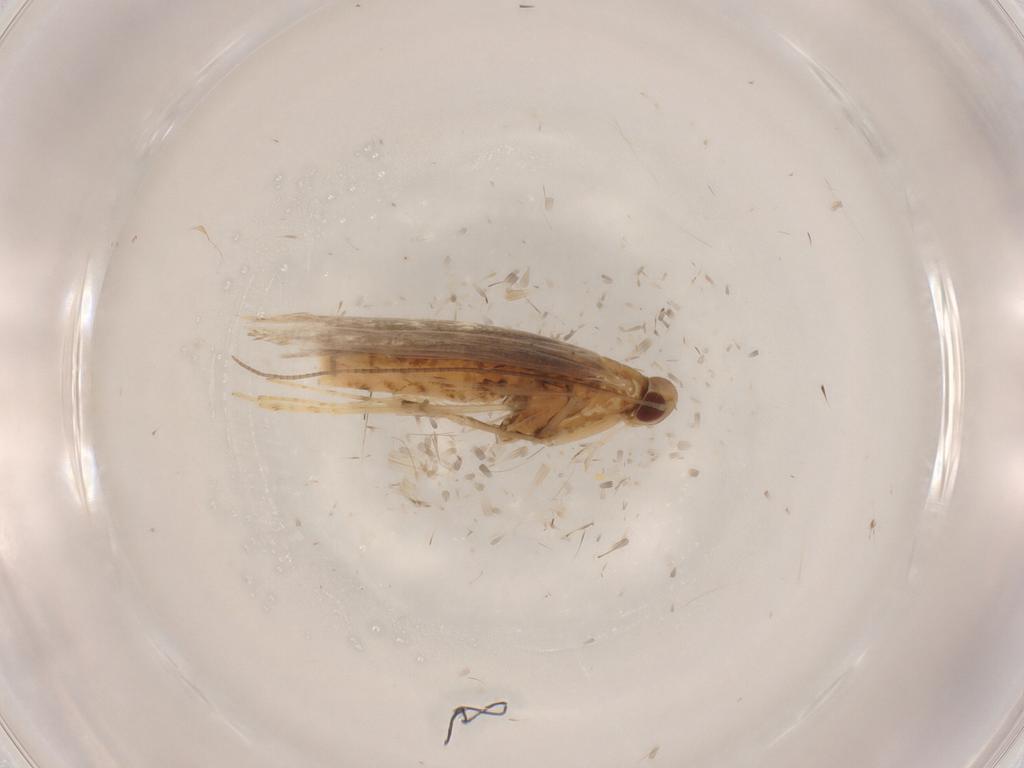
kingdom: Animalia
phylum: Arthropoda
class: Insecta
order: Lepidoptera
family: Gracillariidae
